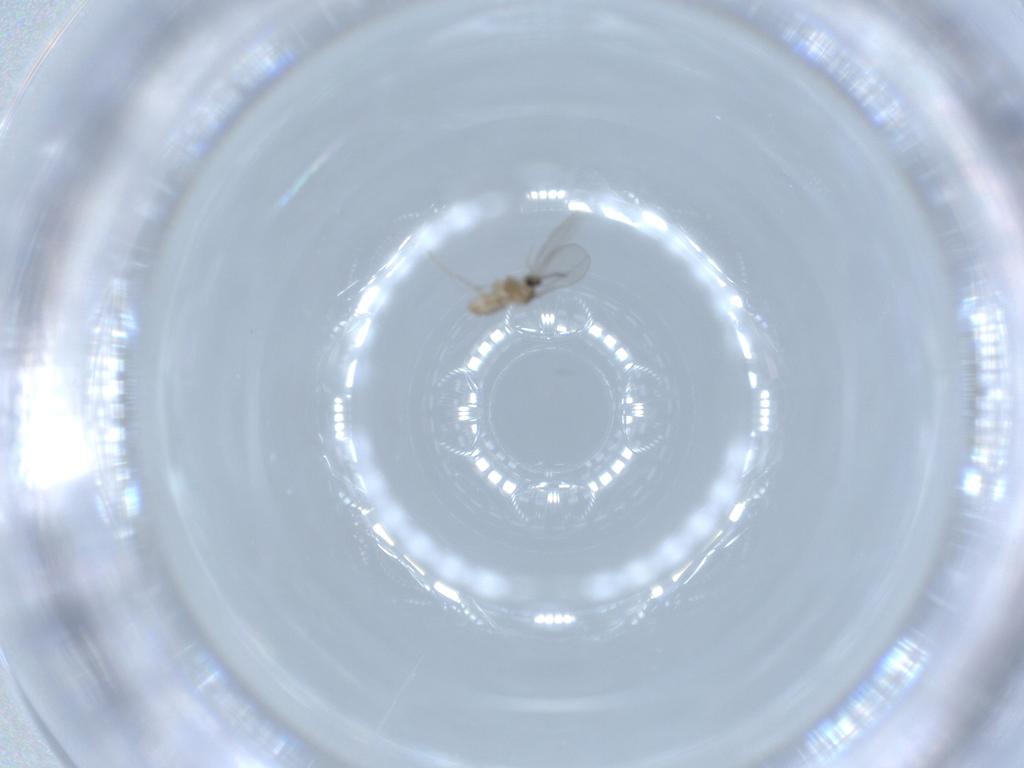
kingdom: Animalia
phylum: Arthropoda
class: Insecta
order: Diptera
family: Cecidomyiidae
